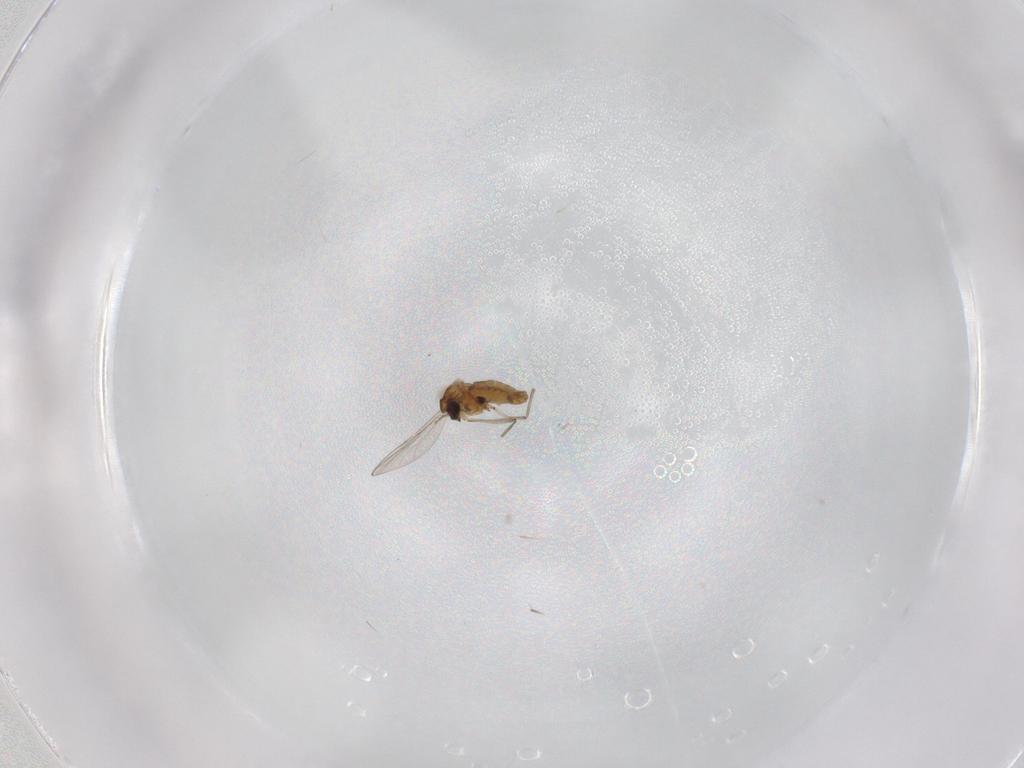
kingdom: Animalia
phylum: Arthropoda
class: Insecta
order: Diptera
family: Ceratopogonidae
